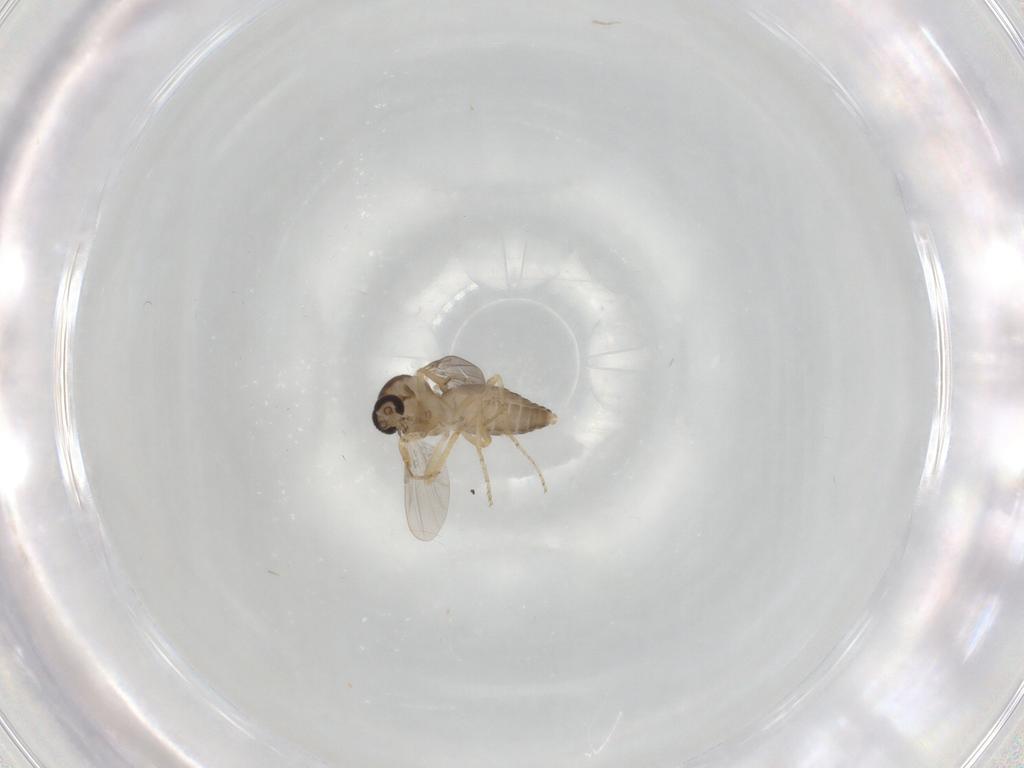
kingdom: Animalia
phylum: Arthropoda
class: Insecta
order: Diptera
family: Ceratopogonidae
